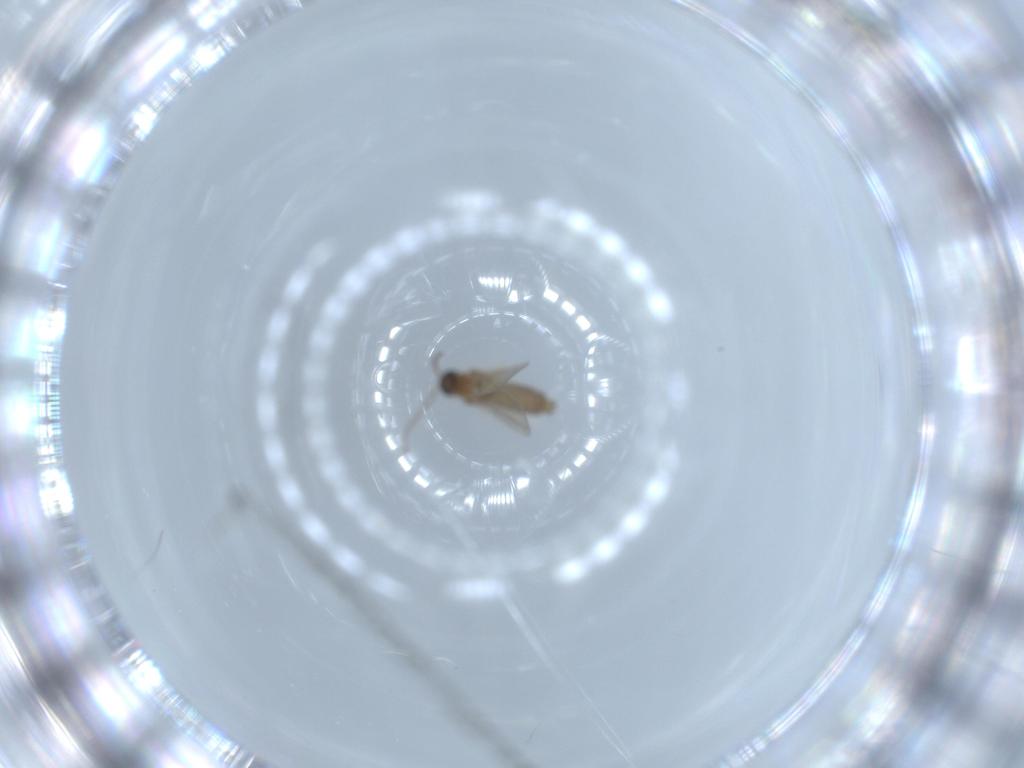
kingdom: Animalia
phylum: Arthropoda
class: Insecta
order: Diptera
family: Cecidomyiidae
